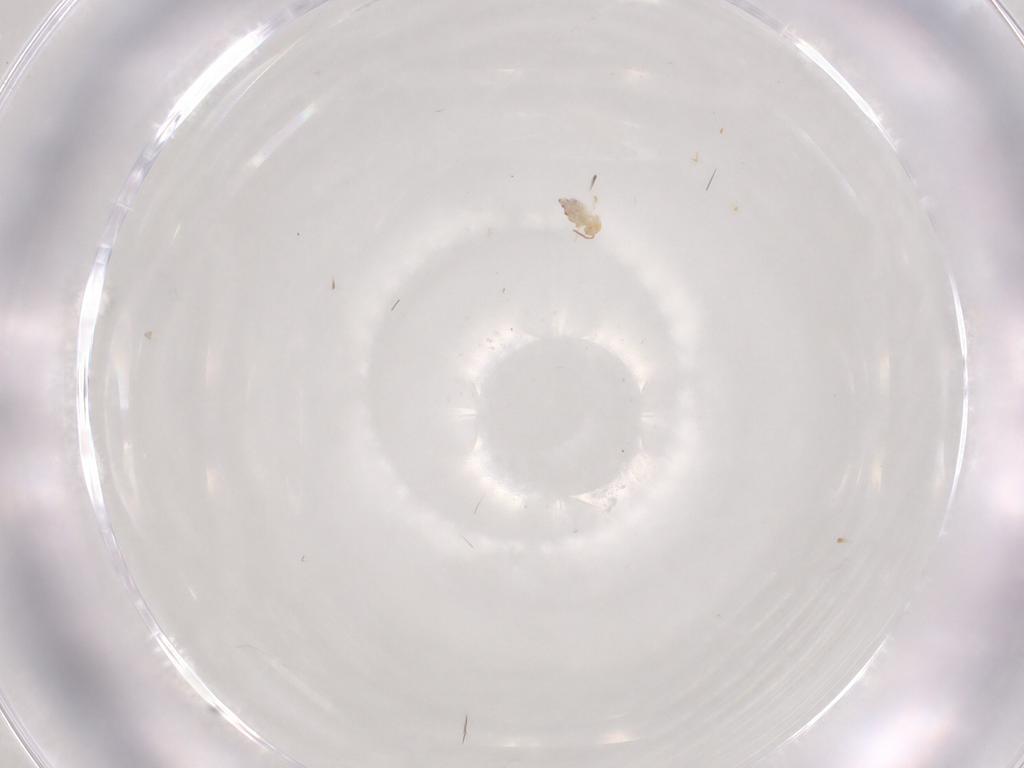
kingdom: Animalia
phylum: Arthropoda
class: Collembola
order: Symphypleona
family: Bourletiellidae
